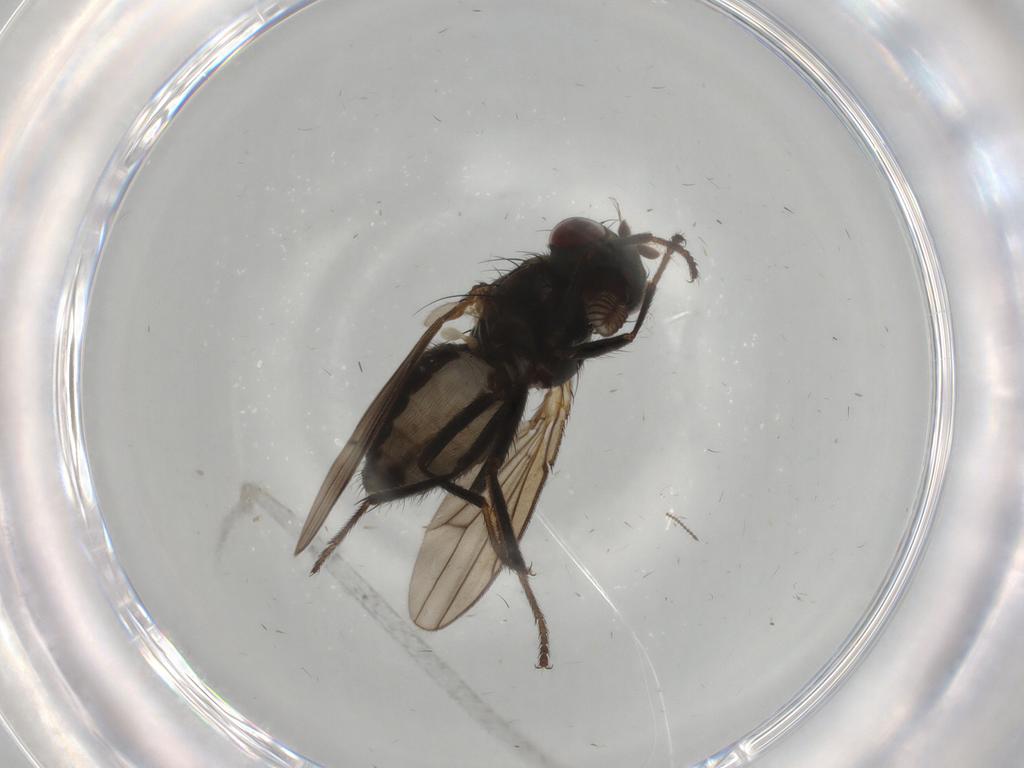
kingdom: Animalia
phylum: Arthropoda
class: Insecta
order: Diptera
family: Ephydridae
